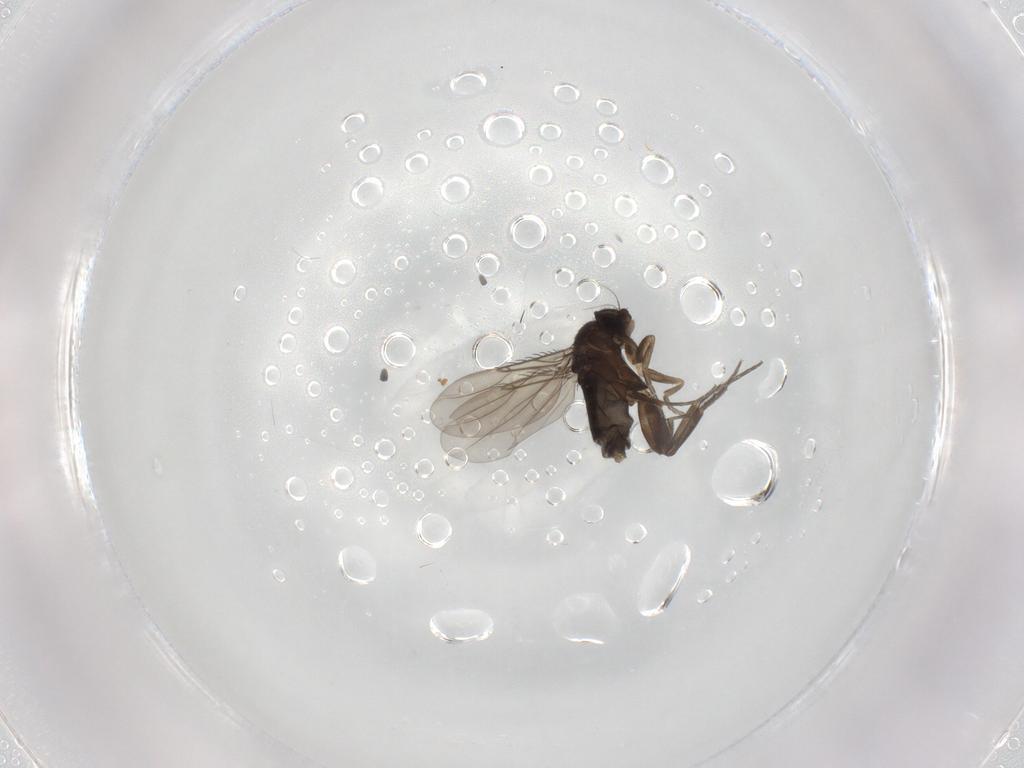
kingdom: Animalia
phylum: Arthropoda
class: Insecta
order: Diptera
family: Phoridae
